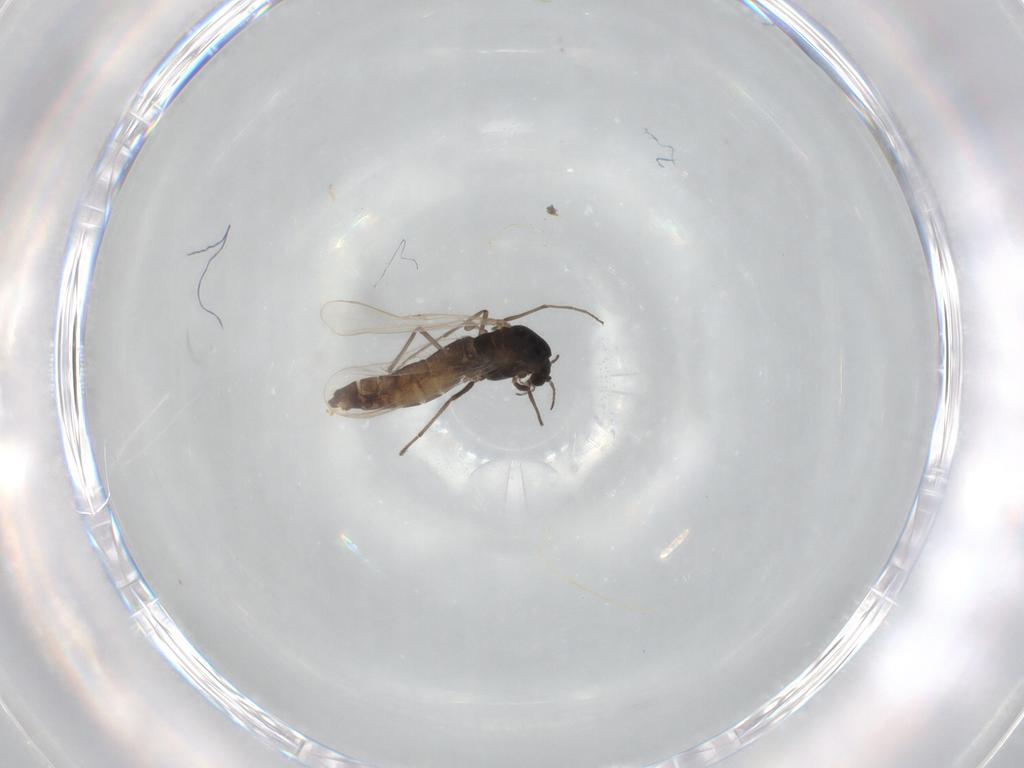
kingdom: Animalia
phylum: Arthropoda
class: Insecta
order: Diptera
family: Chironomidae
